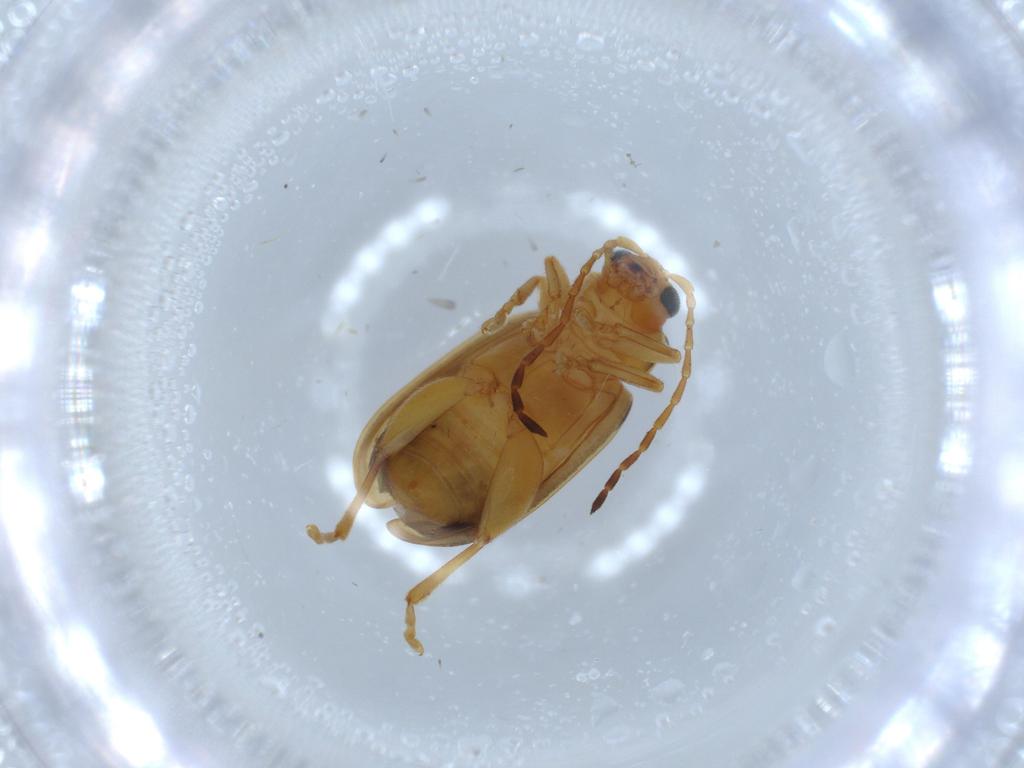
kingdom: Animalia
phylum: Arthropoda
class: Insecta
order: Coleoptera
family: Chrysomelidae
